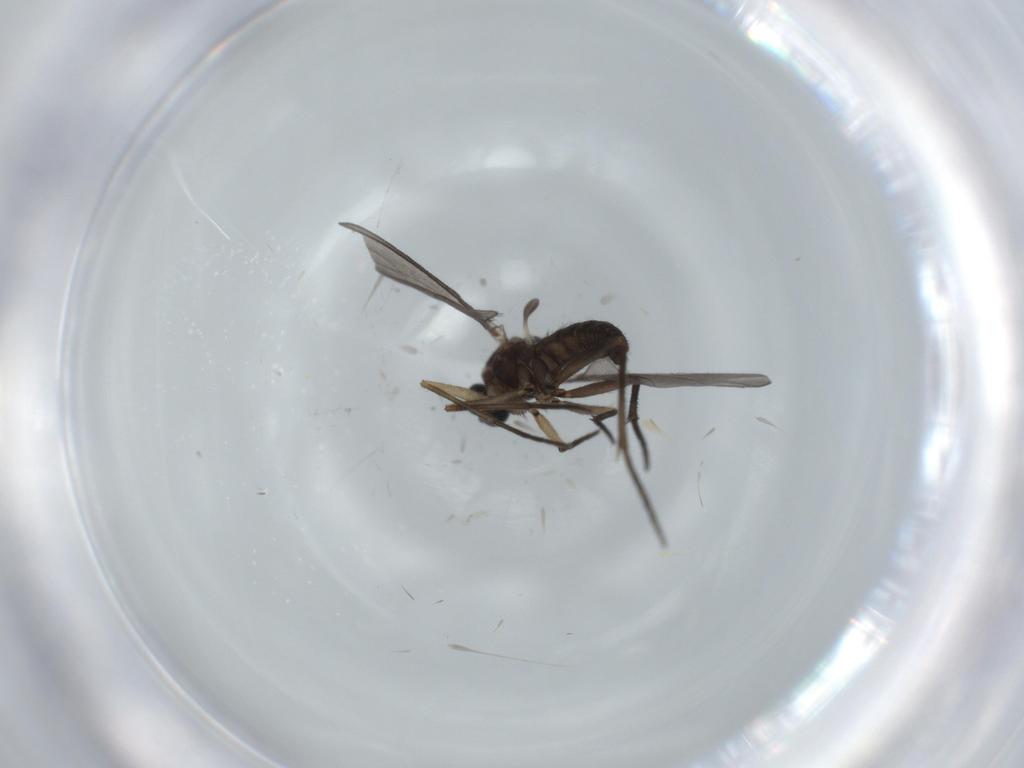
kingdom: Animalia
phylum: Arthropoda
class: Insecta
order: Diptera
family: Sciaridae
